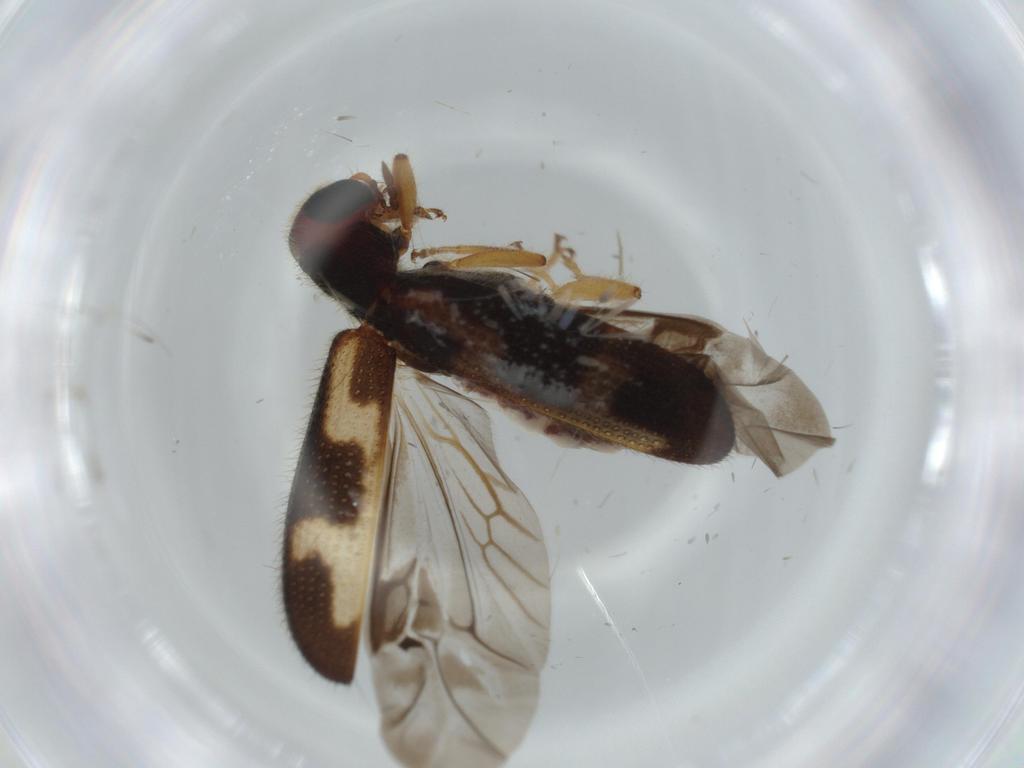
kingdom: Animalia
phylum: Arthropoda
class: Insecta
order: Coleoptera
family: Cleridae
